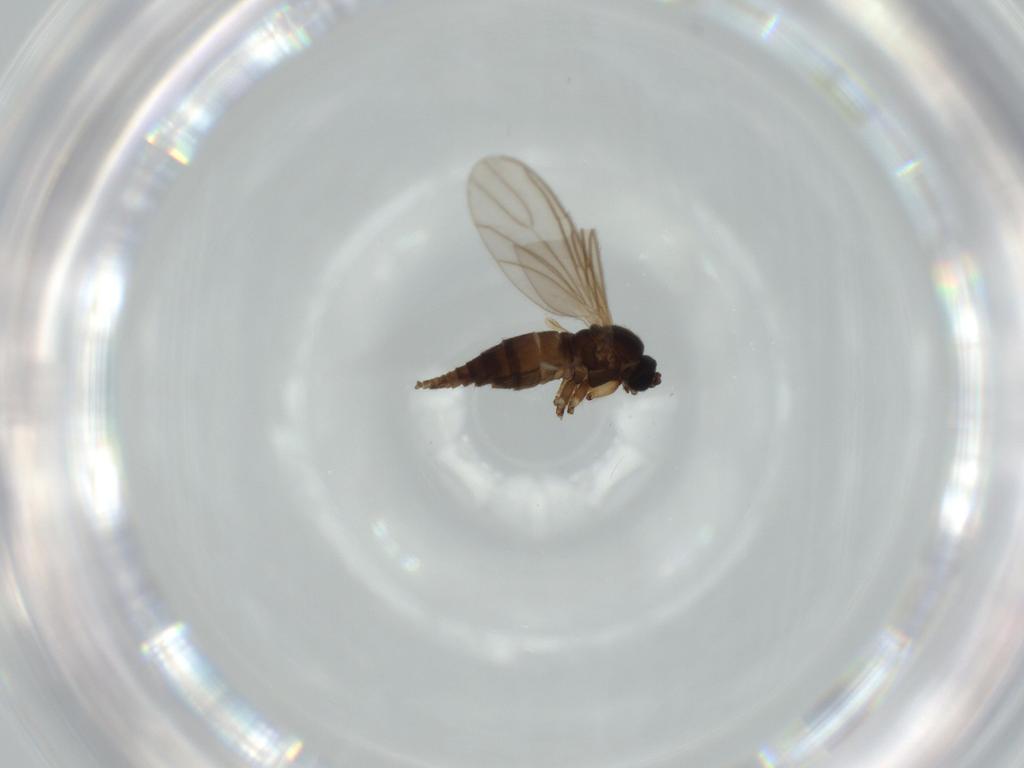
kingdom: Animalia
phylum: Arthropoda
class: Insecta
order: Diptera
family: Sciaridae
